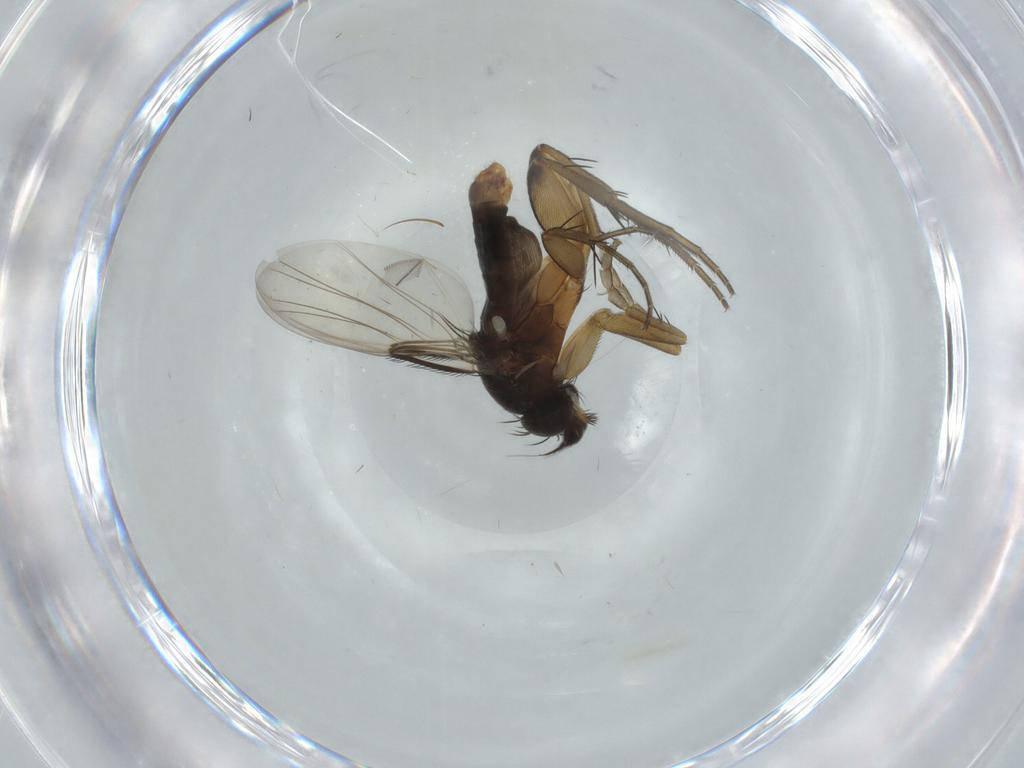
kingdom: Animalia
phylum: Arthropoda
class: Insecta
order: Diptera
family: Phoridae
